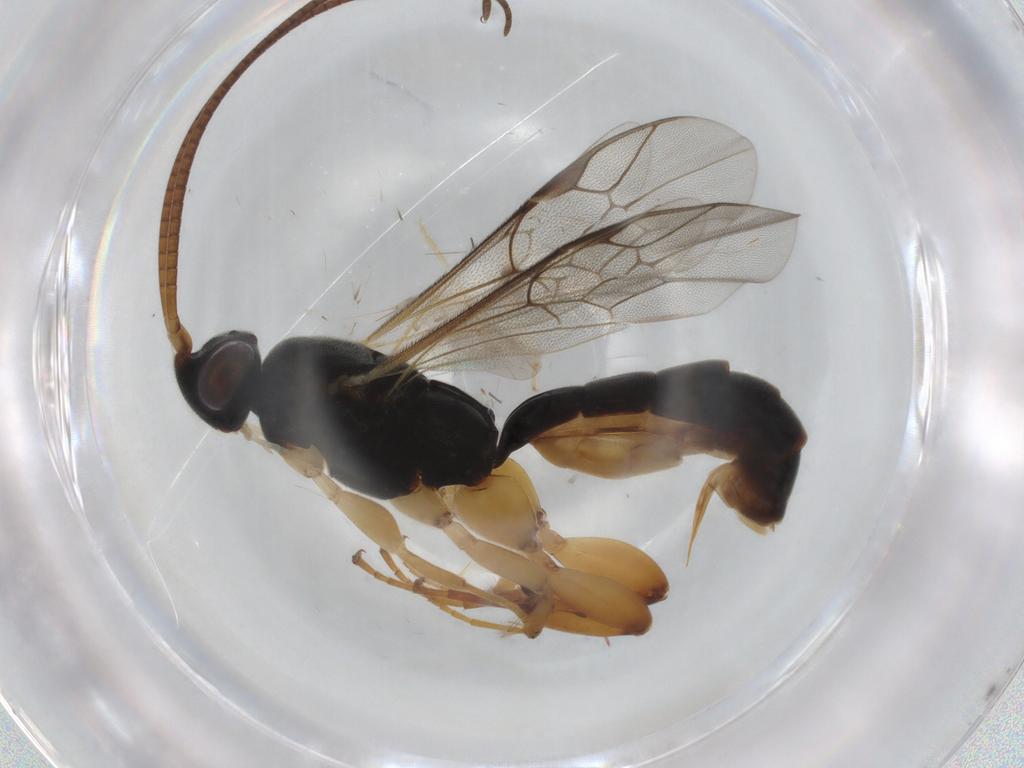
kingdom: Animalia
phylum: Arthropoda
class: Insecta
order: Hymenoptera
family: Ichneumonidae
